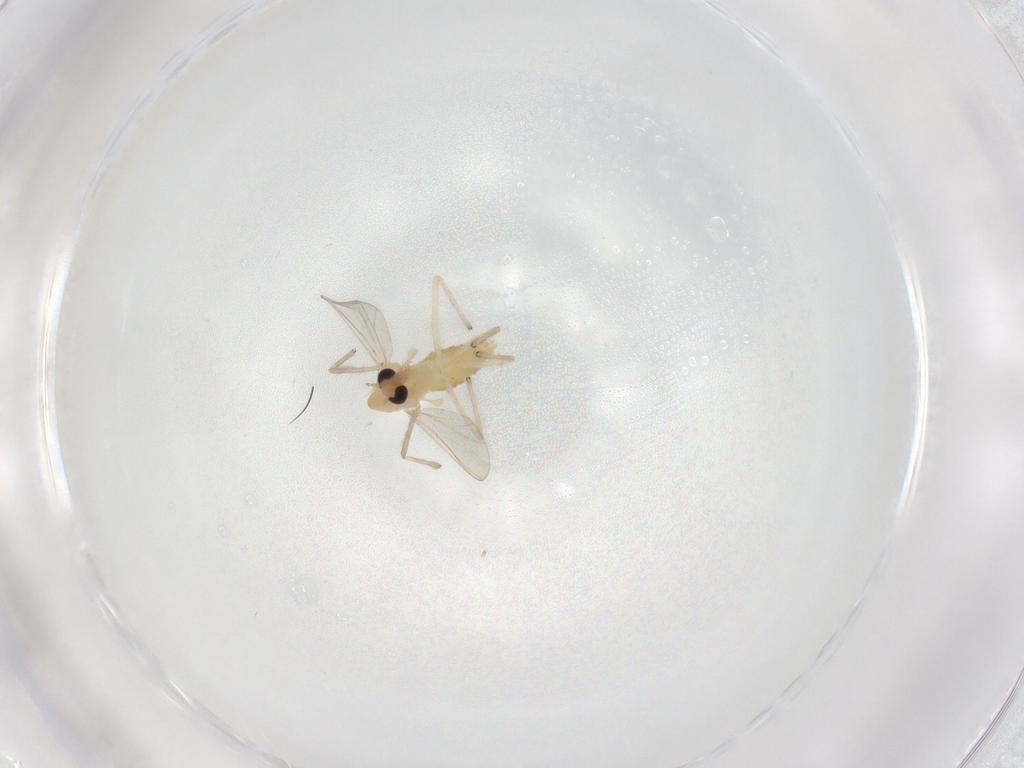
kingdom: Animalia
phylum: Arthropoda
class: Insecta
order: Diptera
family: Chironomidae
